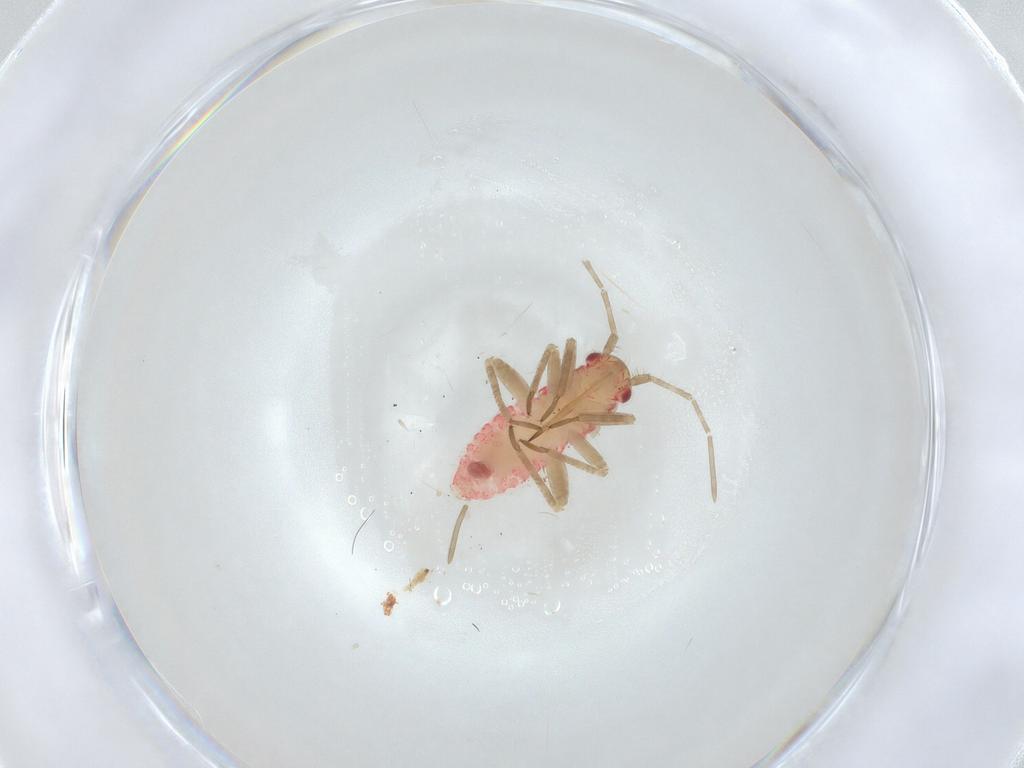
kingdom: Animalia
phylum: Arthropoda
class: Insecta
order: Hemiptera
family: Miridae
